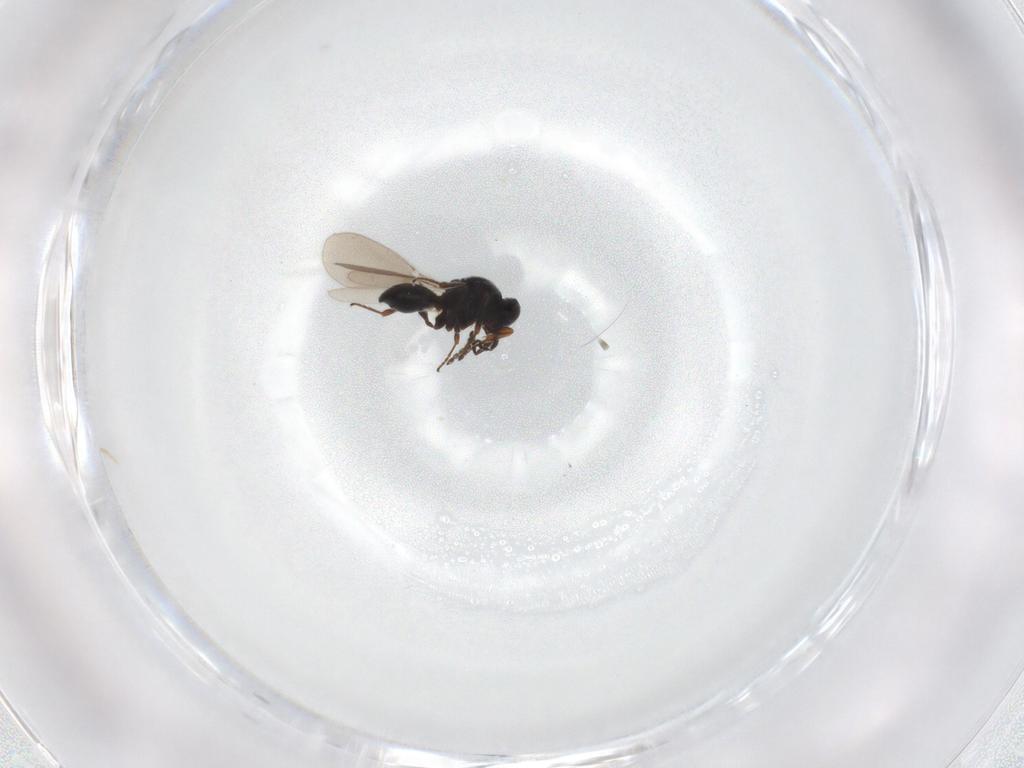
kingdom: Animalia
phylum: Arthropoda
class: Insecta
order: Hymenoptera
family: Platygastridae
